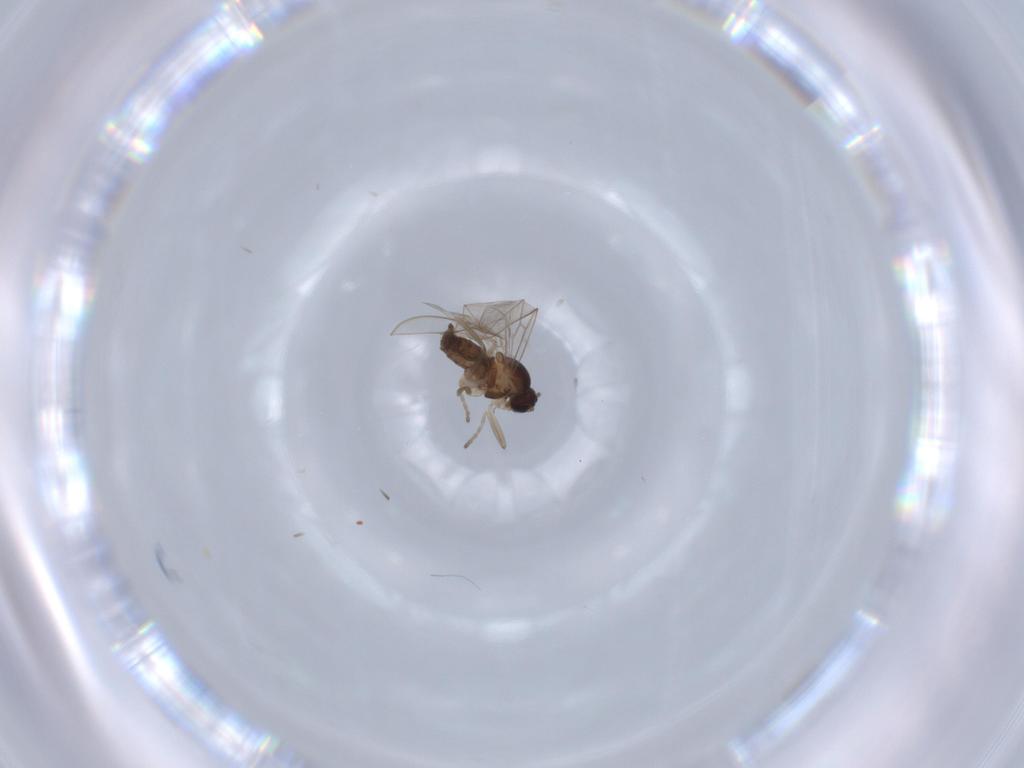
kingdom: Animalia
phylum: Arthropoda
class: Insecta
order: Diptera
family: Cecidomyiidae
